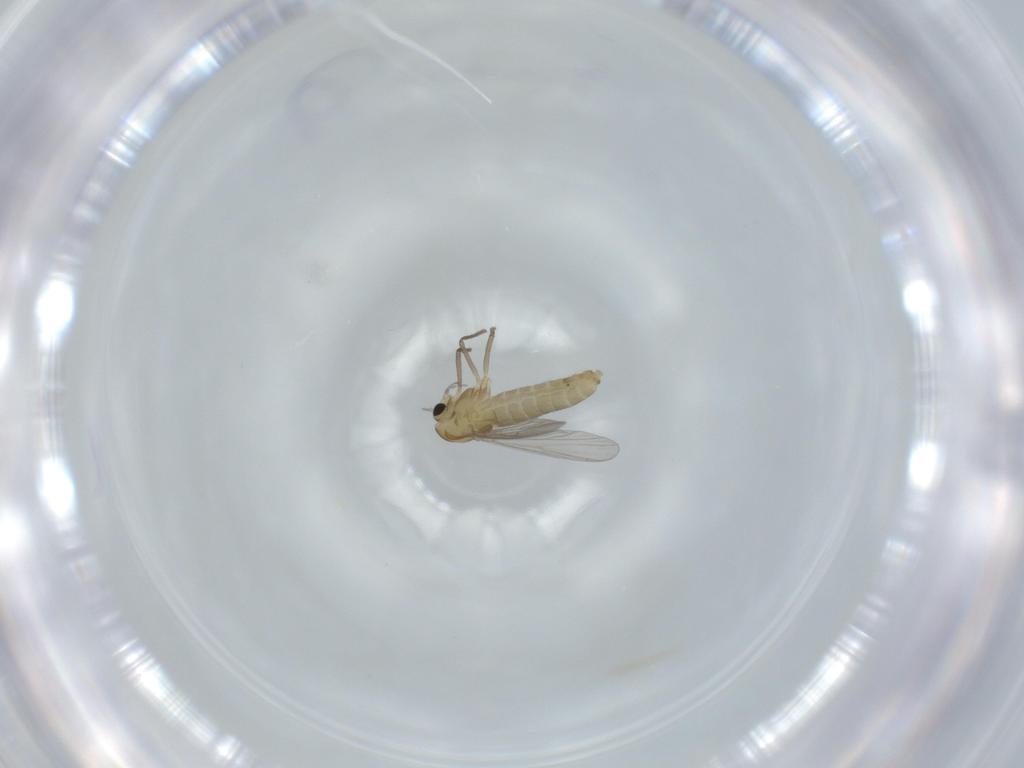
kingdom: Animalia
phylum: Arthropoda
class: Insecta
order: Diptera
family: Chironomidae
